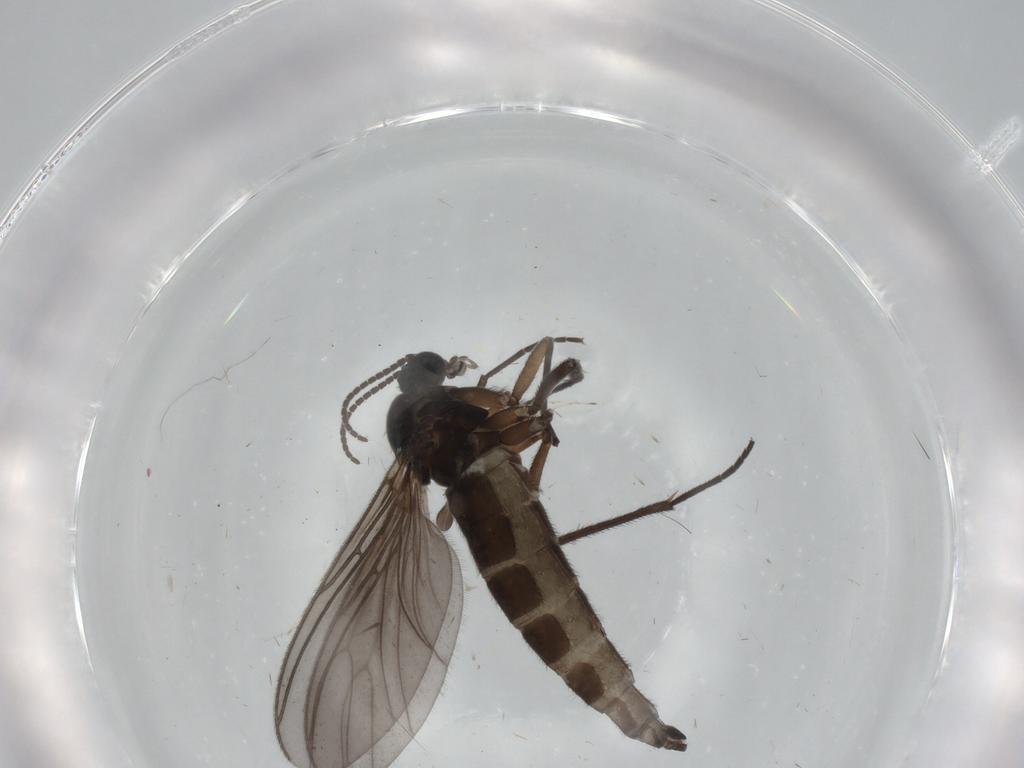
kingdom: Animalia
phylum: Arthropoda
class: Insecta
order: Diptera
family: Sciaridae
